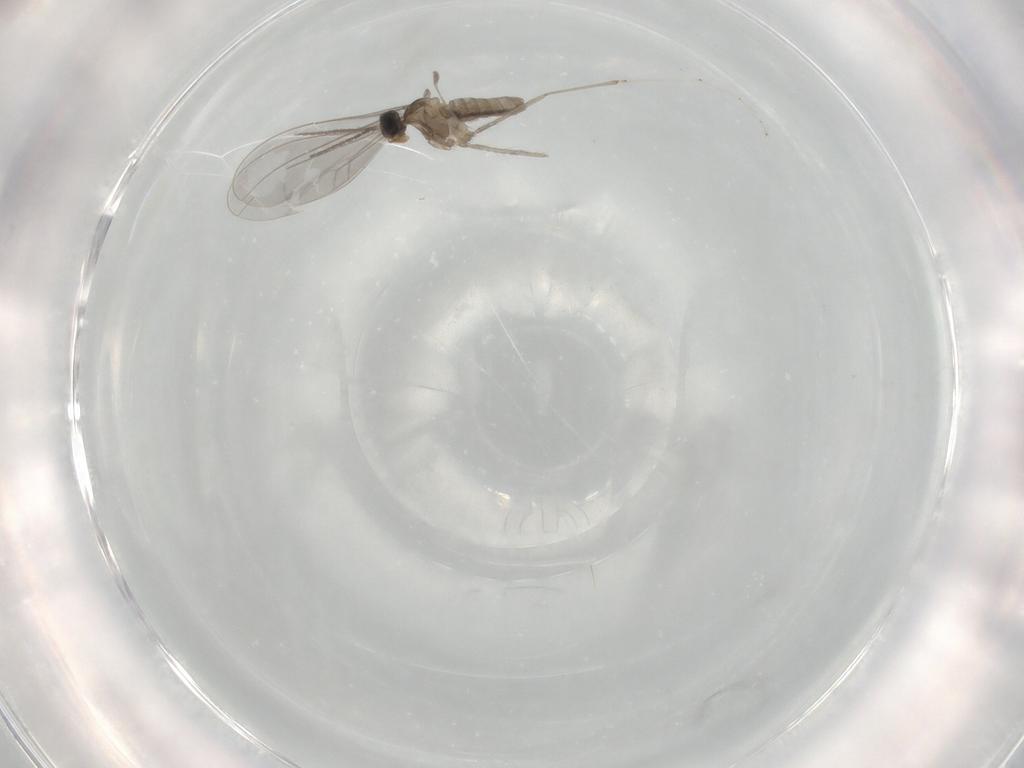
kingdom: Animalia
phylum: Arthropoda
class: Insecta
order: Diptera
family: Cecidomyiidae
